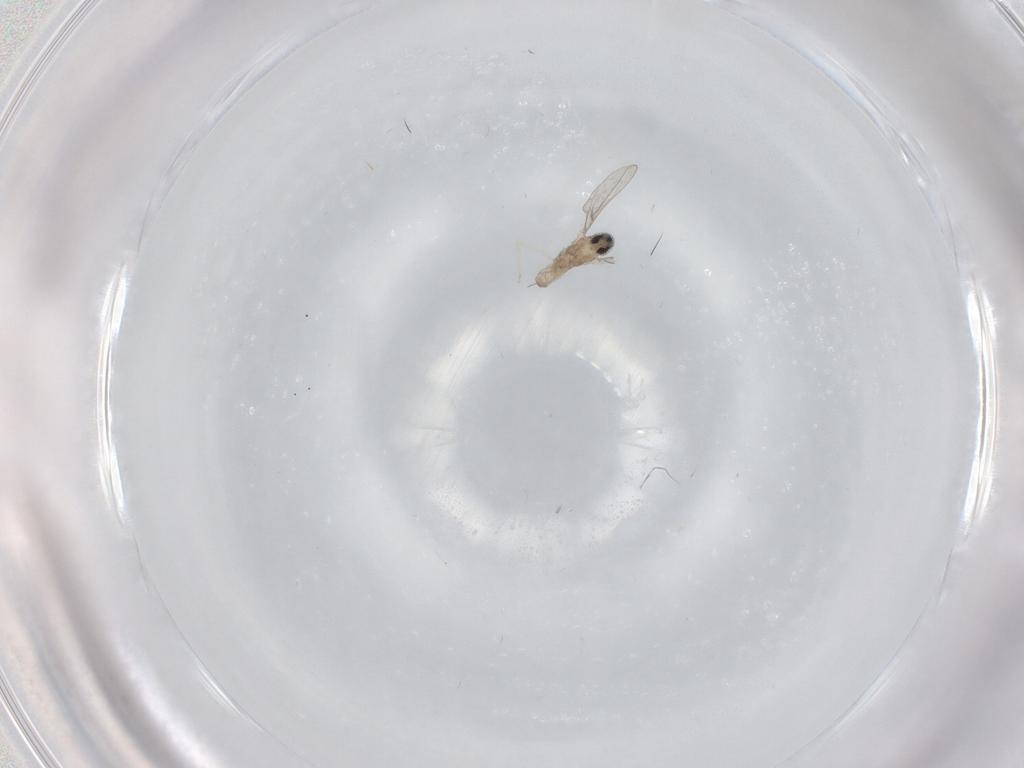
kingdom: Animalia
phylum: Arthropoda
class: Insecta
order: Diptera
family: Cecidomyiidae
